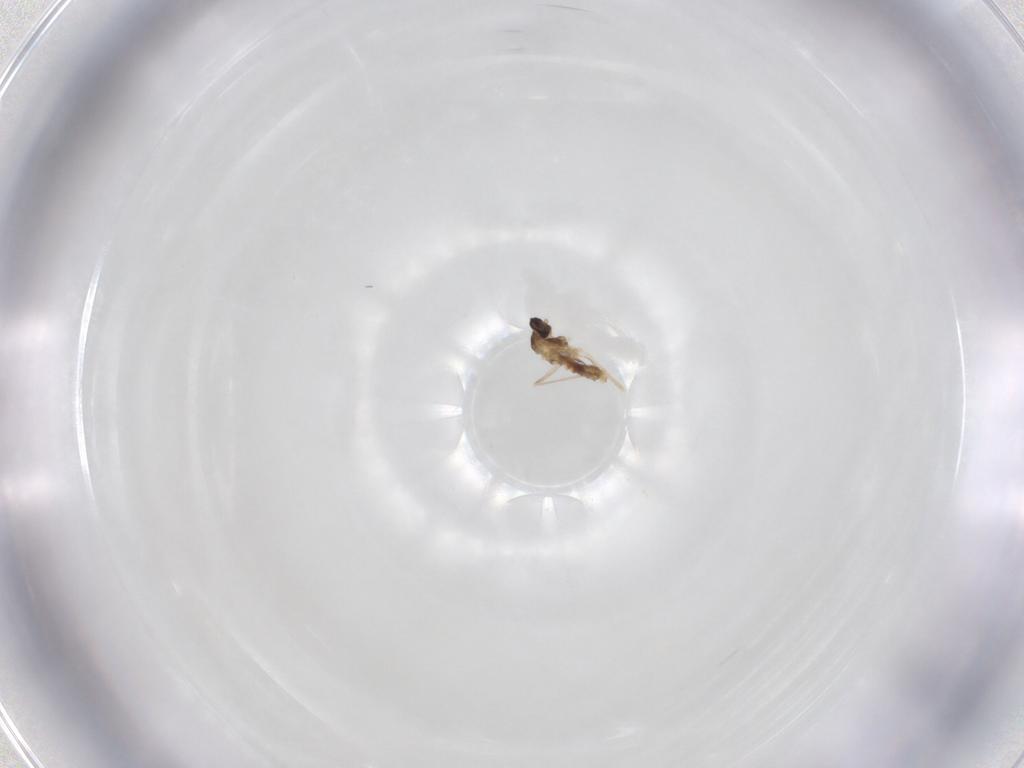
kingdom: Animalia
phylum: Arthropoda
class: Insecta
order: Diptera
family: Cecidomyiidae
